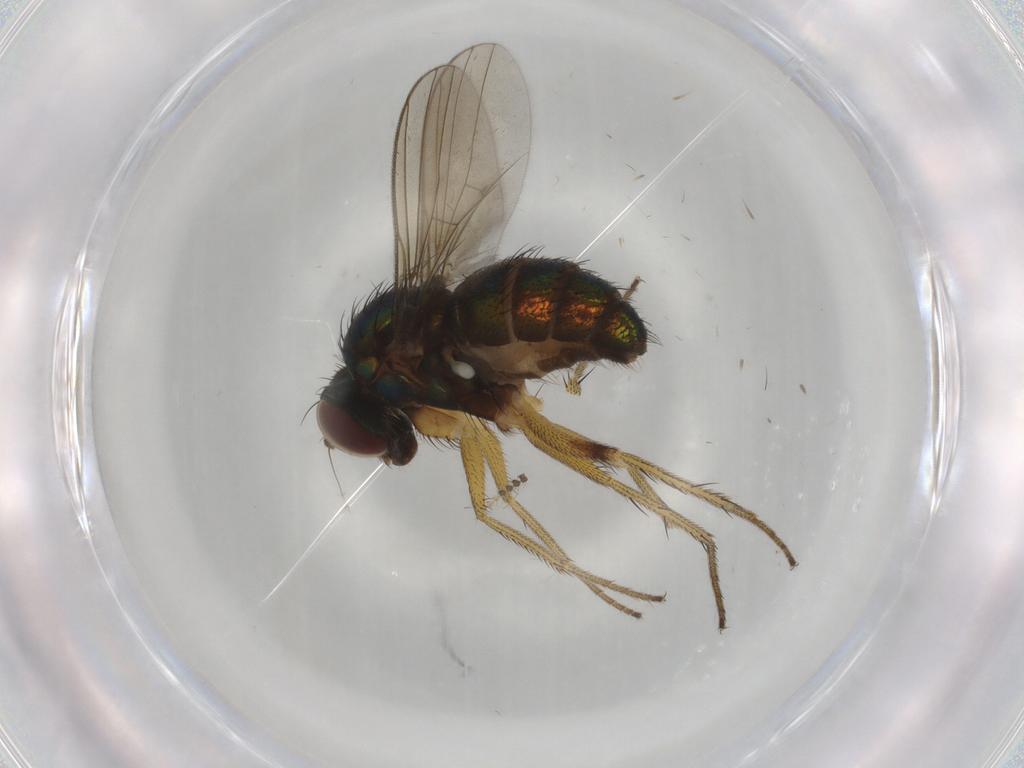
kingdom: Animalia
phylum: Arthropoda
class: Insecta
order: Diptera
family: Dolichopodidae
